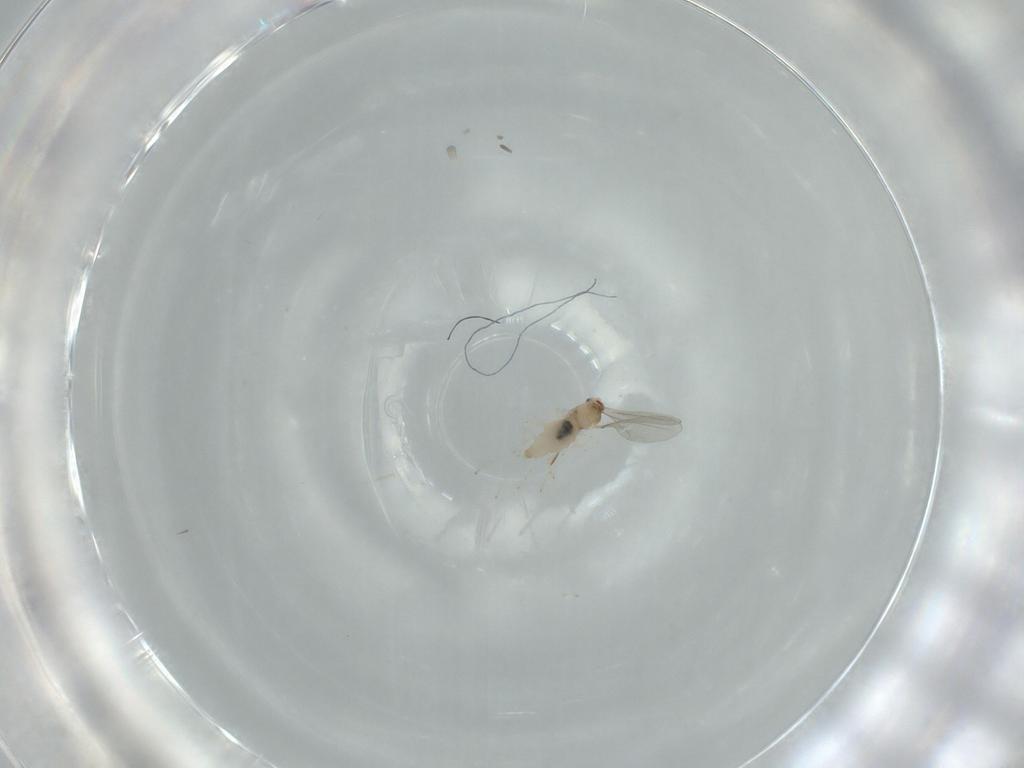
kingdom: Animalia
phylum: Arthropoda
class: Insecta
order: Diptera
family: Cecidomyiidae
